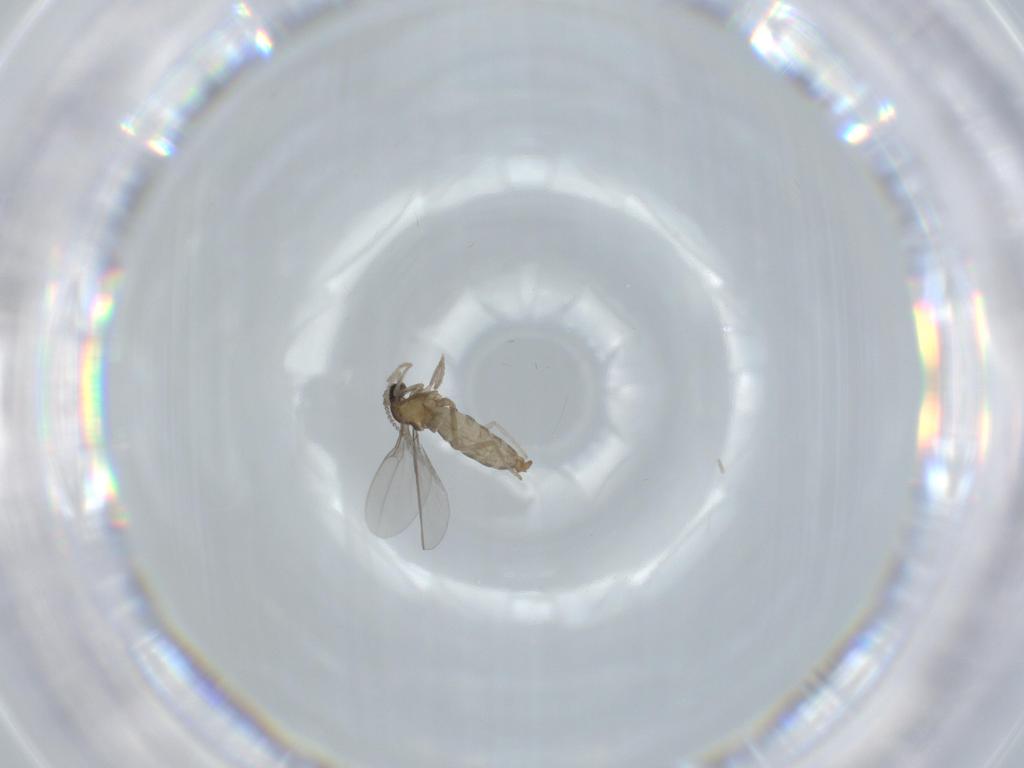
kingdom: Animalia
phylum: Arthropoda
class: Insecta
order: Diptera
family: Cecidomyiidae
